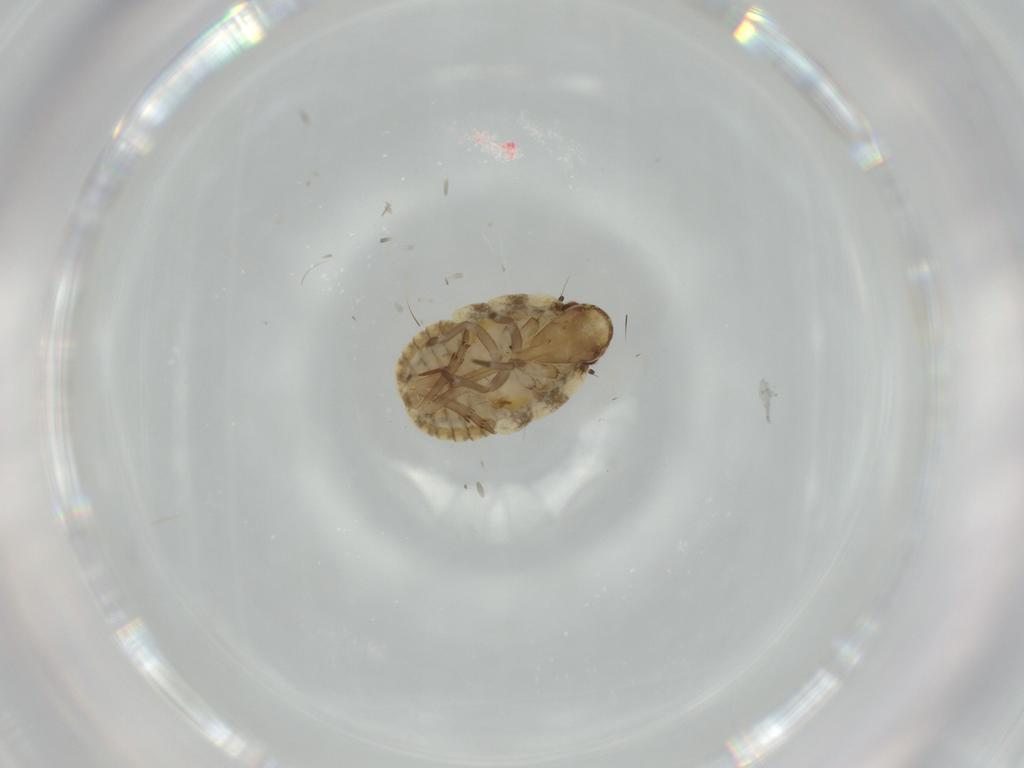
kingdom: Animalia
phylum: Arthropoda
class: Insecta
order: Hemiptera
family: Flatidae
